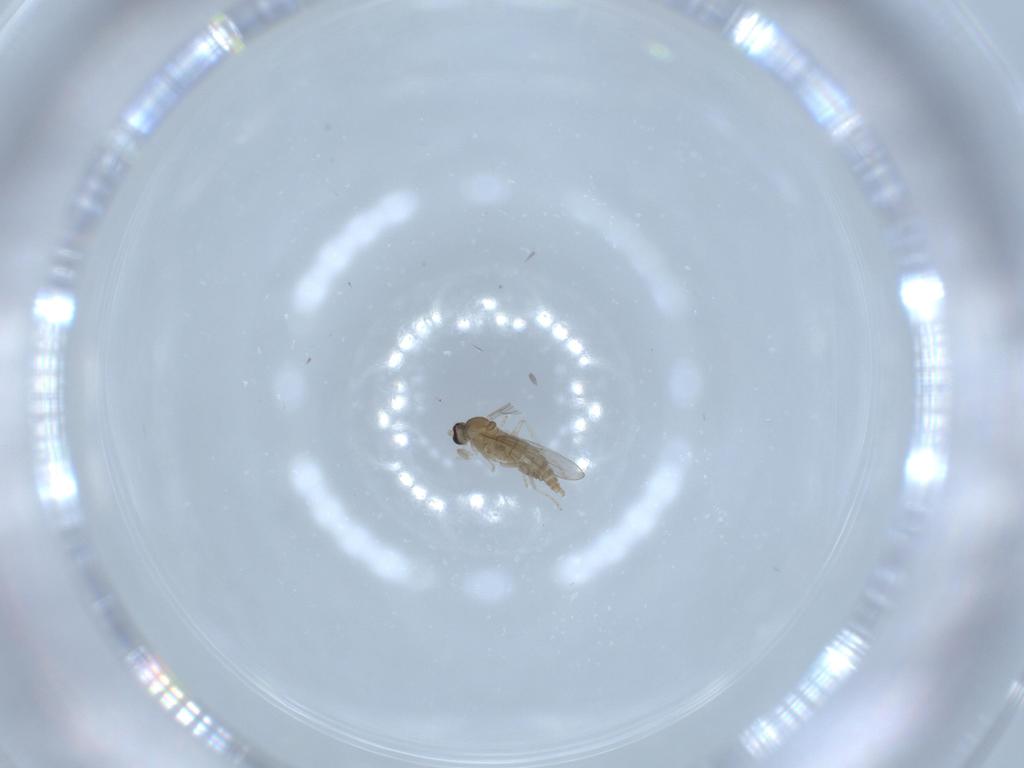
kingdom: Animalia
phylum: Arthropoda
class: Insecta
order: Diptera
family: Cecidomyiidae
